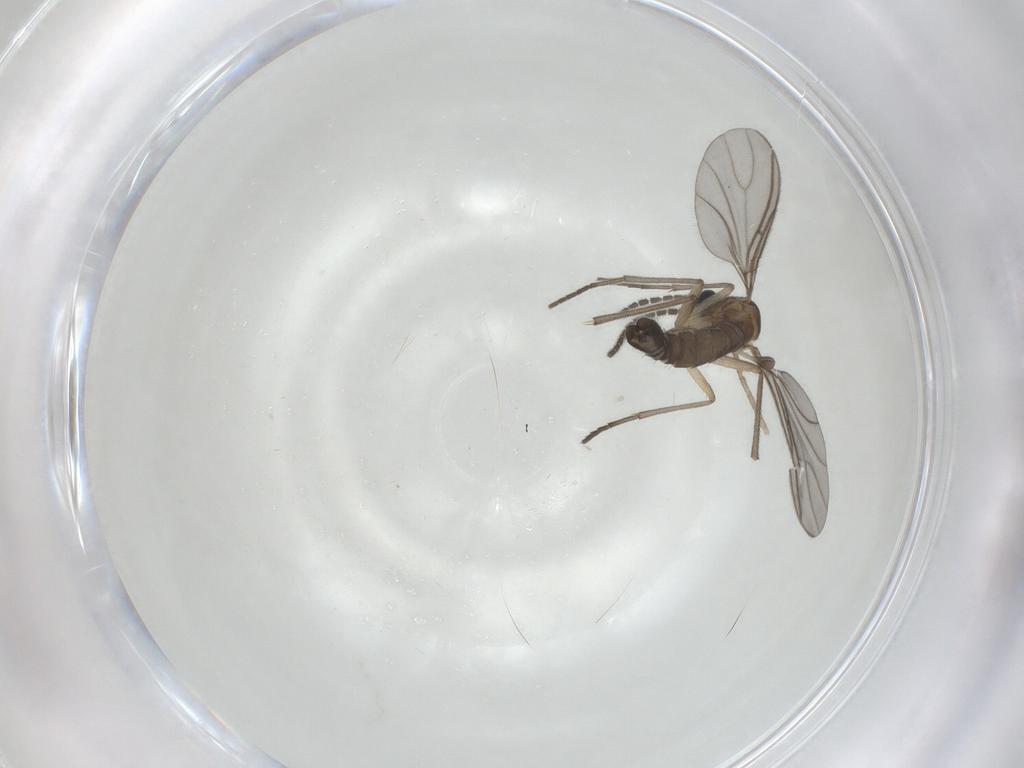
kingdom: Animalia
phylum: Arthropoda
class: Insecta
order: Diptera
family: Sciaridae
